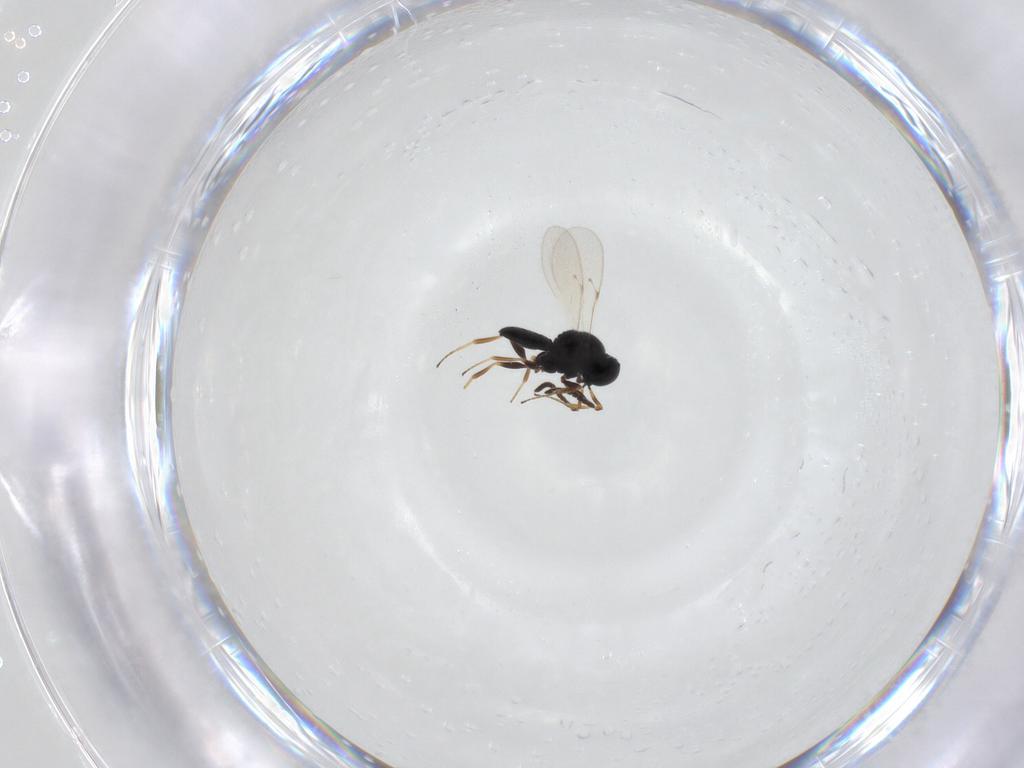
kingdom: Animalia
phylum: Arthropoda
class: Insecta
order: Hymenoptera
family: Scelionidae
